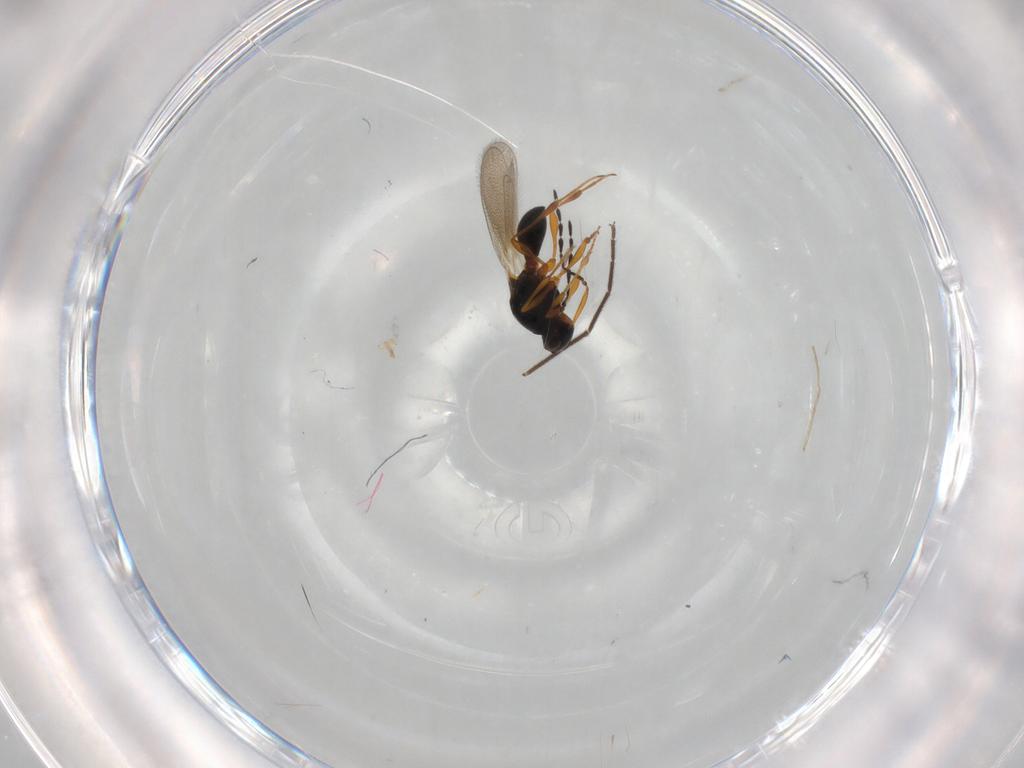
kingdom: Animalia
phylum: Arthropoda
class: Insecta
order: Hymenoptera
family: Platygastridae
